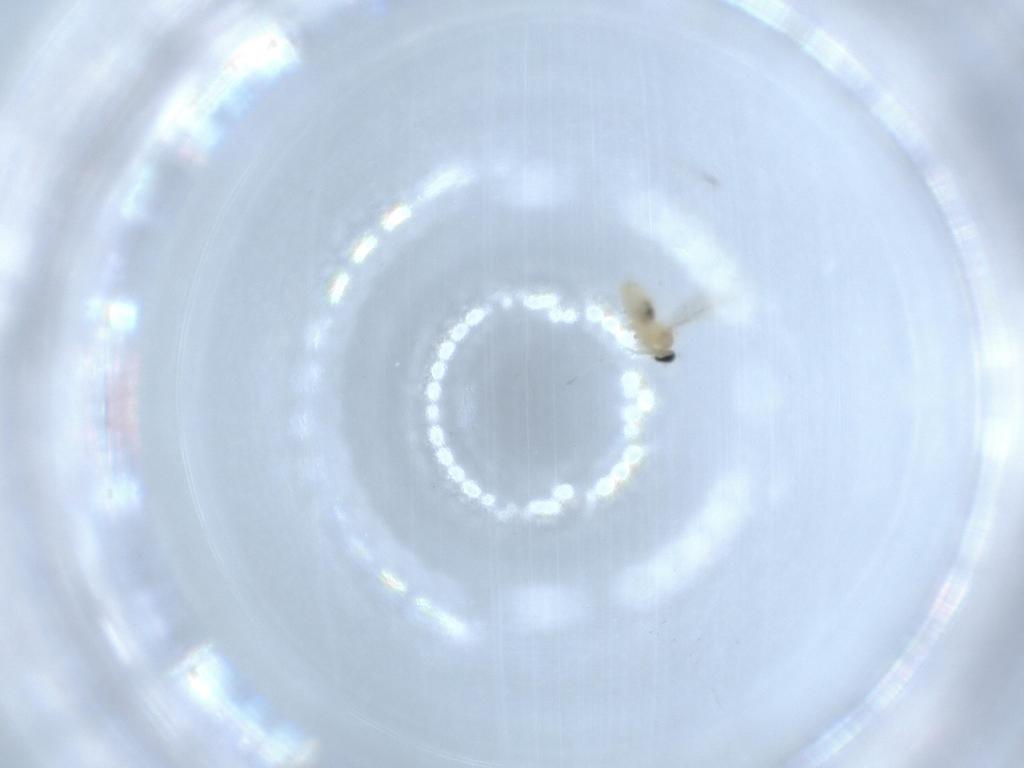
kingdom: Animalia
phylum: Arthropoda
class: Insecta
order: Diptera
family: Cecidomyiidae
